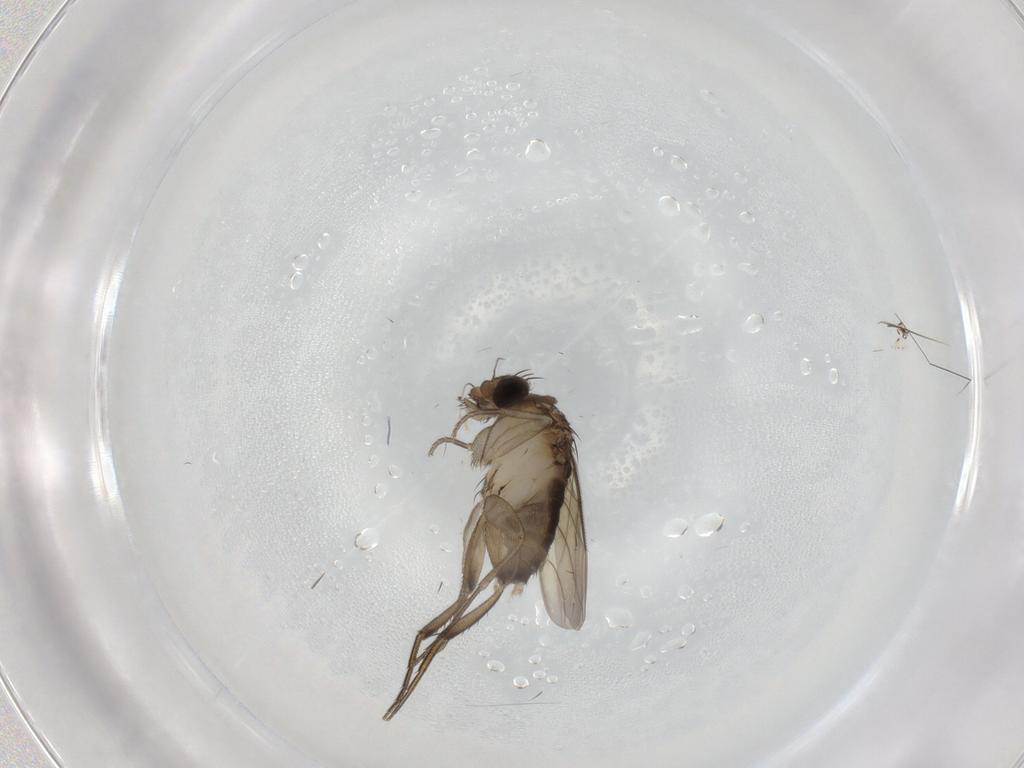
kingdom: Animalia
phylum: Arthropoda
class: Insecta
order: Diptera
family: Phoridae
